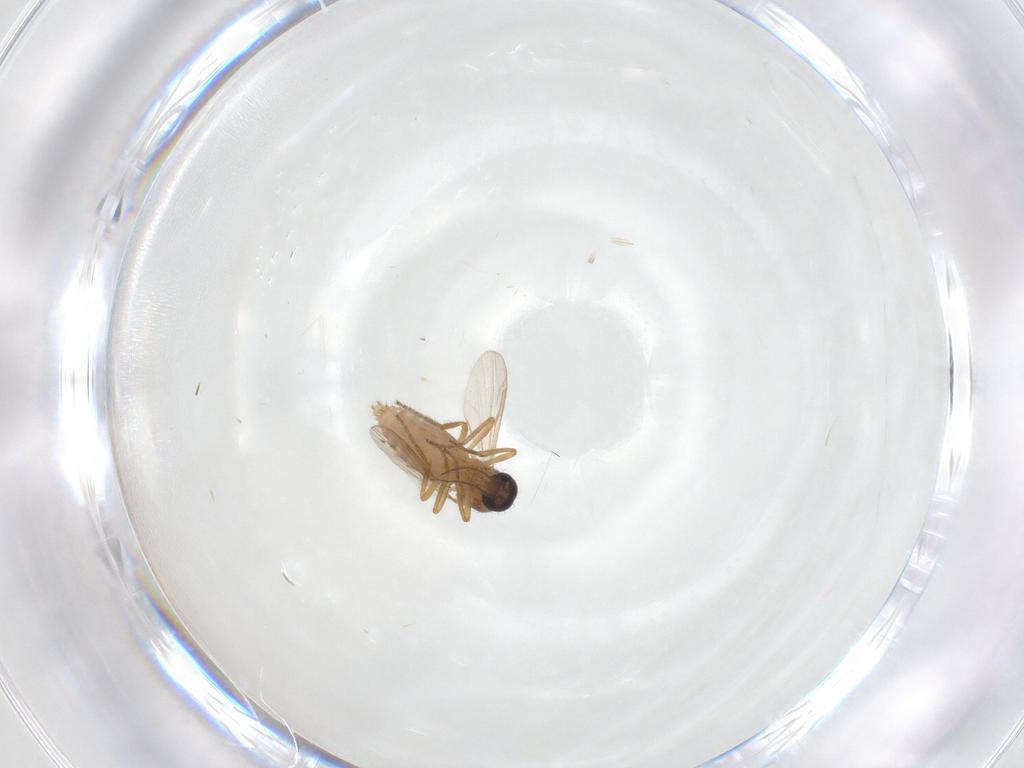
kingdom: Animalia
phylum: Arthropoda
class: Insecta
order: Diptera
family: Ceratopogonidae
